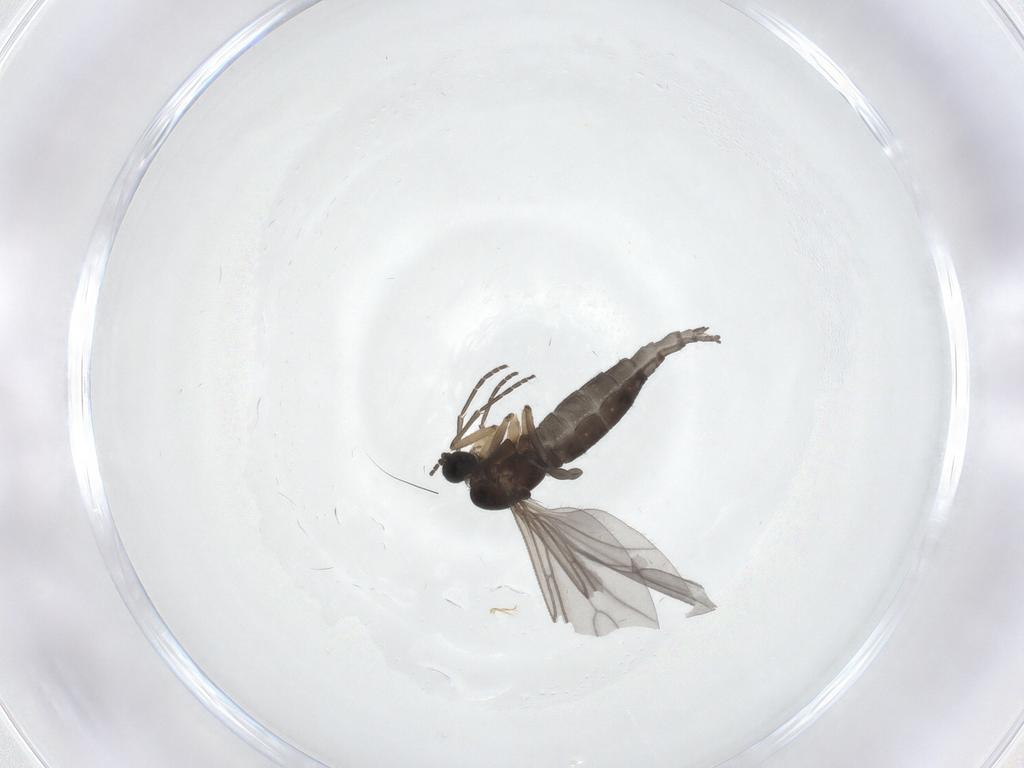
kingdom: Animalia
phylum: Arthropoda
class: Insecta
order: Diptera
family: Sciaridae
